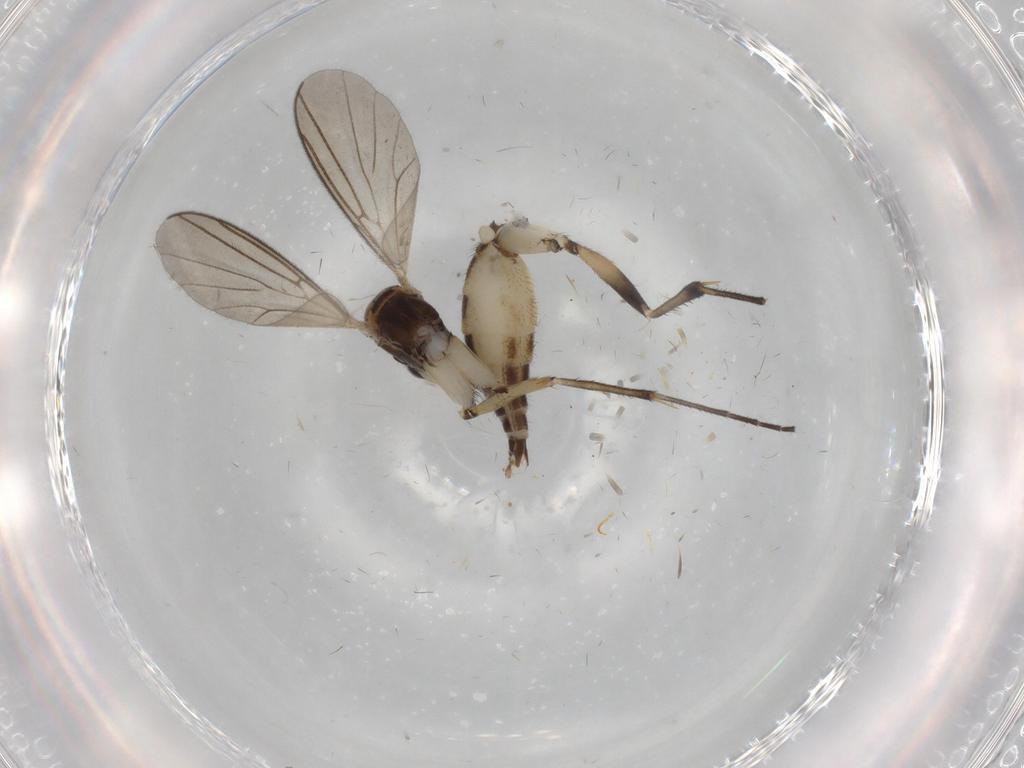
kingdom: Animalia
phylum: Arthropoda
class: Insecta
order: Diptera
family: Mycetophilidae
